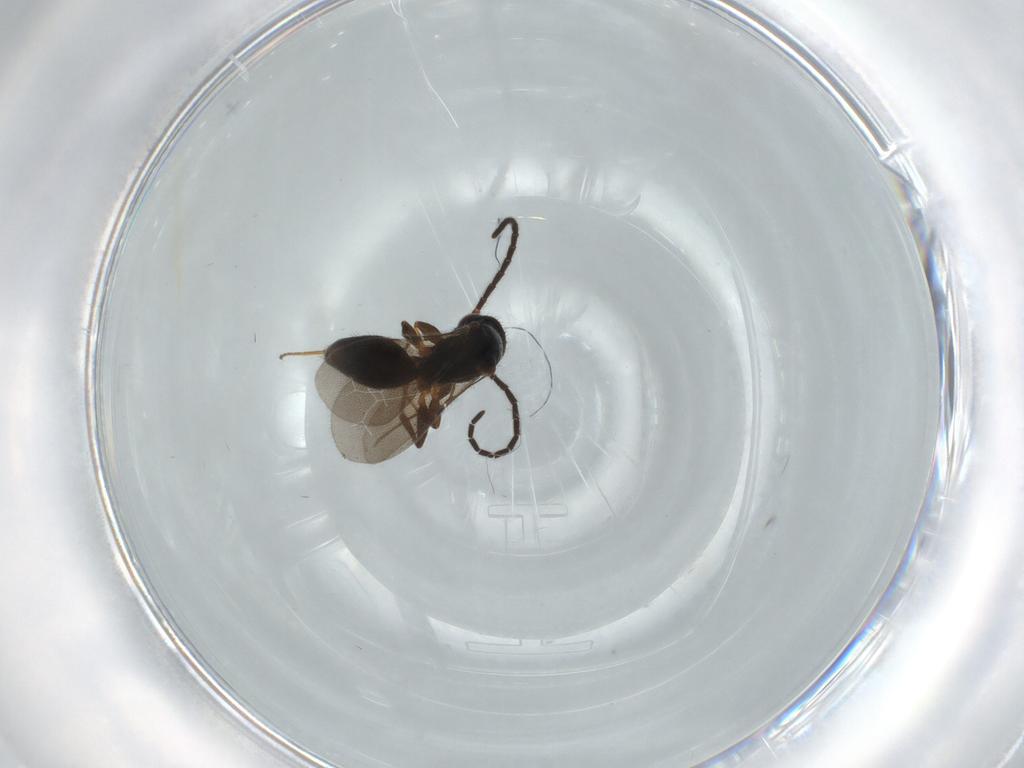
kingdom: Animalia
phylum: Arthropoda
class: Insecta
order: Hymenoptera
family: Bethylidae
